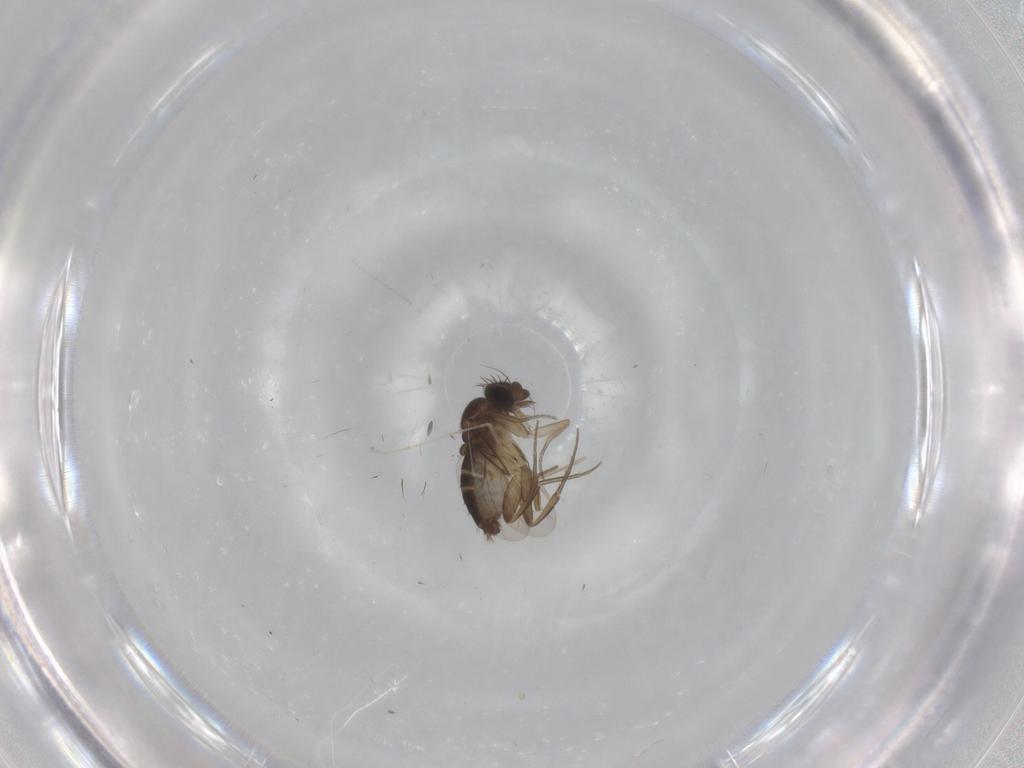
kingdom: Animalia
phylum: Arthropoda
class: Insecta
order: Diptera
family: Phoridae
